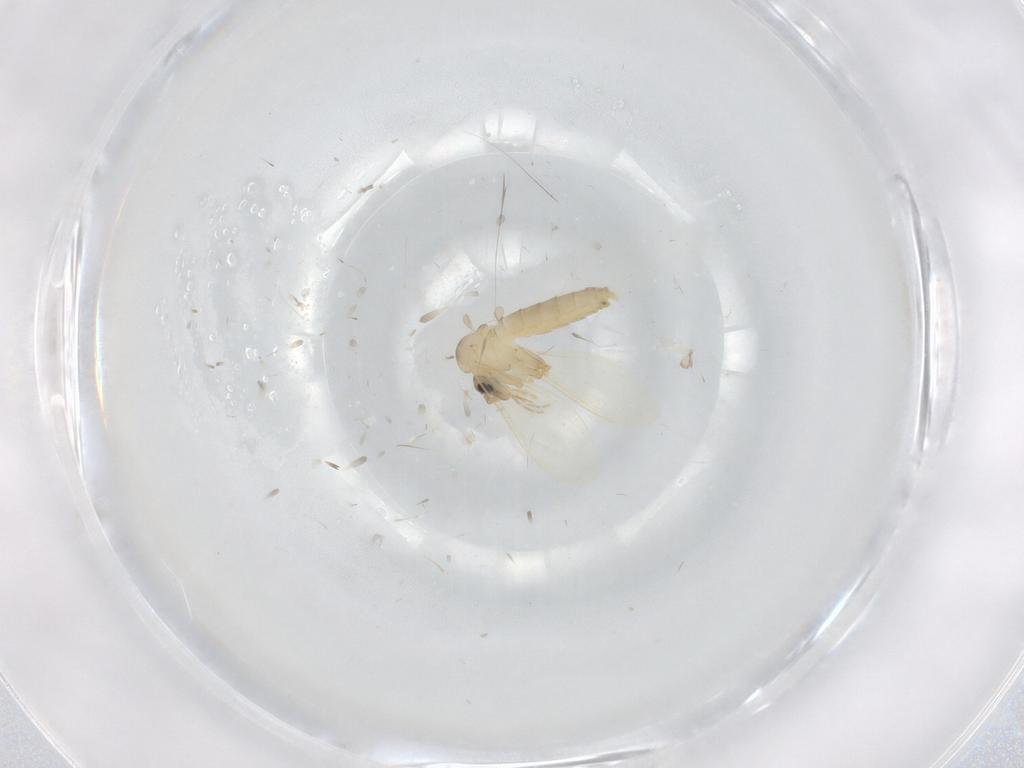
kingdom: Animalia
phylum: Arthropoda
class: Insecta
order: Diptera
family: Psychodidae
